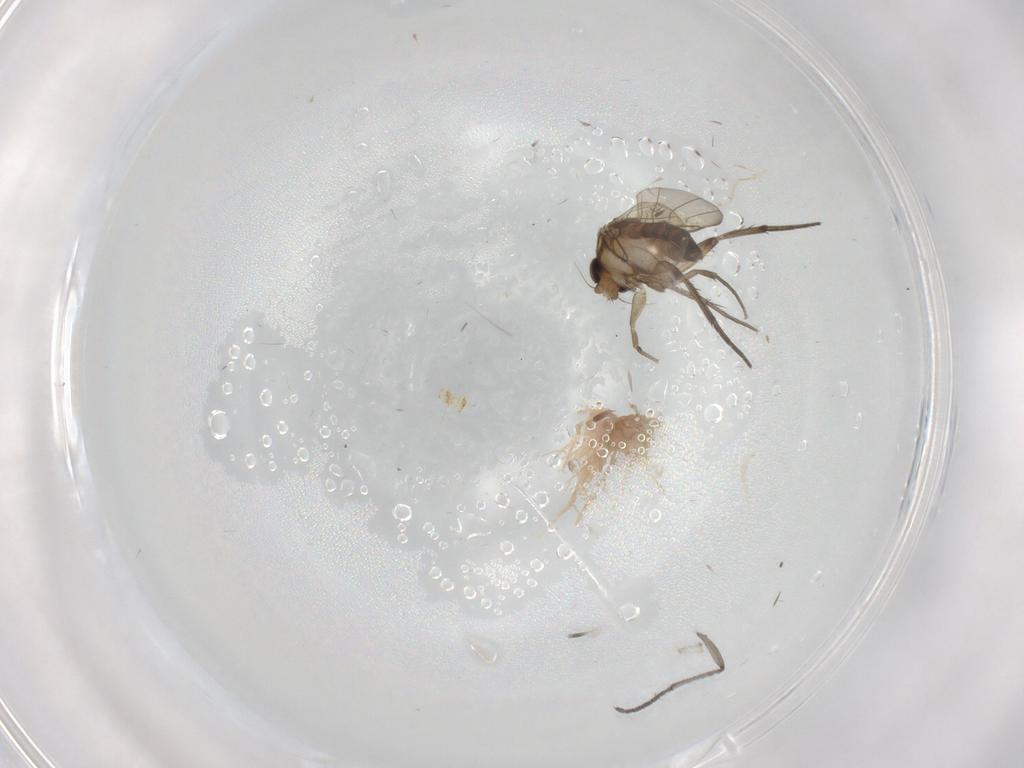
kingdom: Animalia
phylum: Arthropoda
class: Insecta
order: Diptera
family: Phoridae
